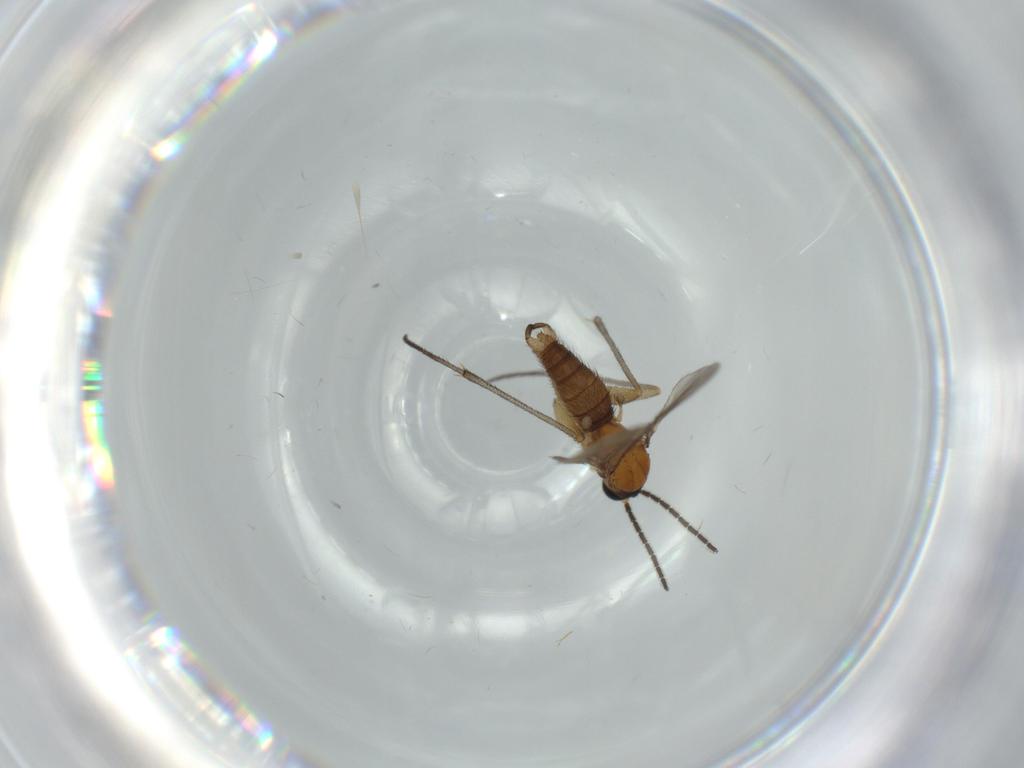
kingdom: Animalia
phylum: Arthropoda
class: Insecta
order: Diptera
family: Sciaridae
